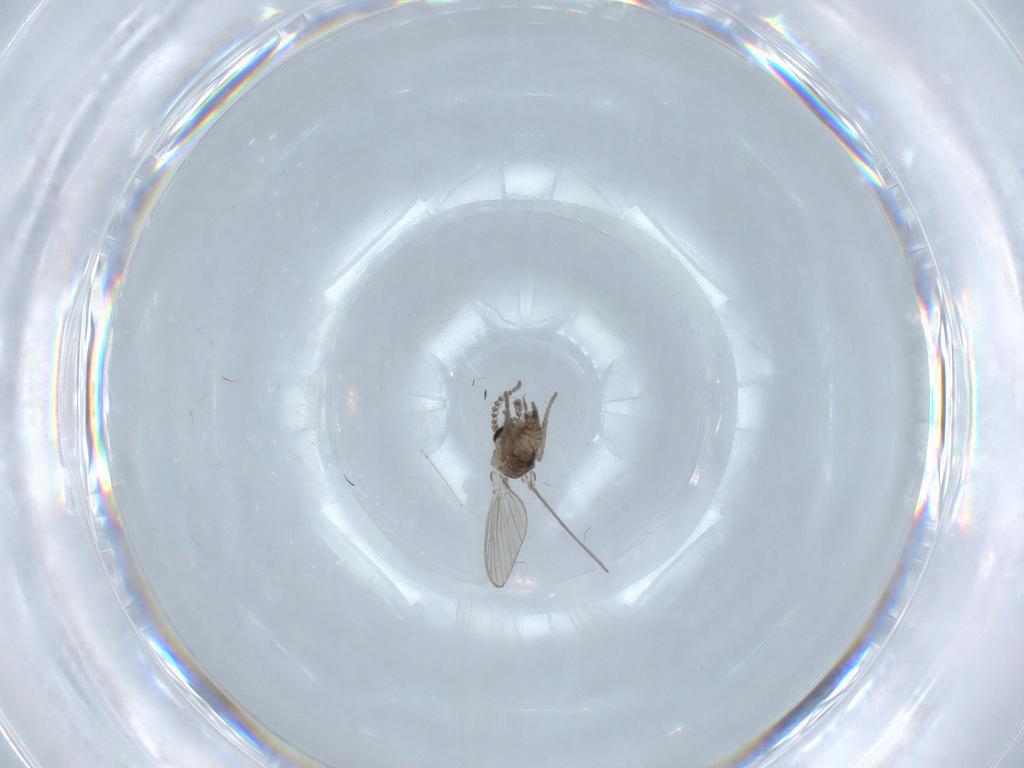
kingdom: Animalia
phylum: Arthropoda
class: Insecta
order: Diptera
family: Psychodidae
